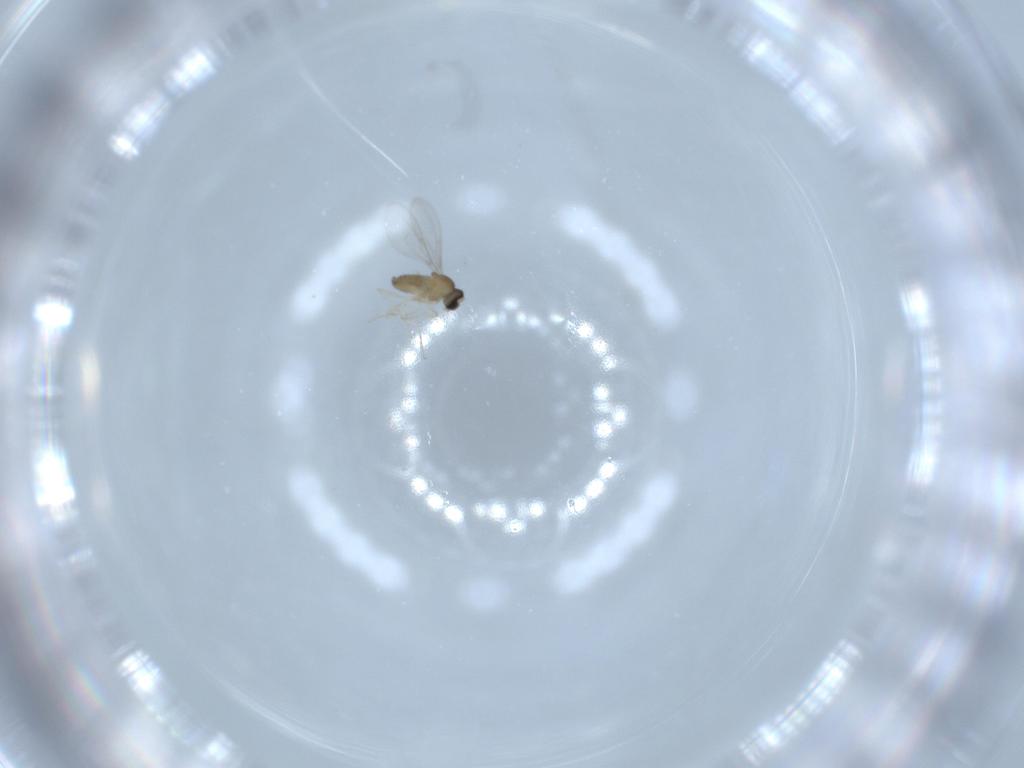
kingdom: Animalia
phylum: Arthropoda
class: Insecta
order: Diptera
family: Cecidomyiidae
